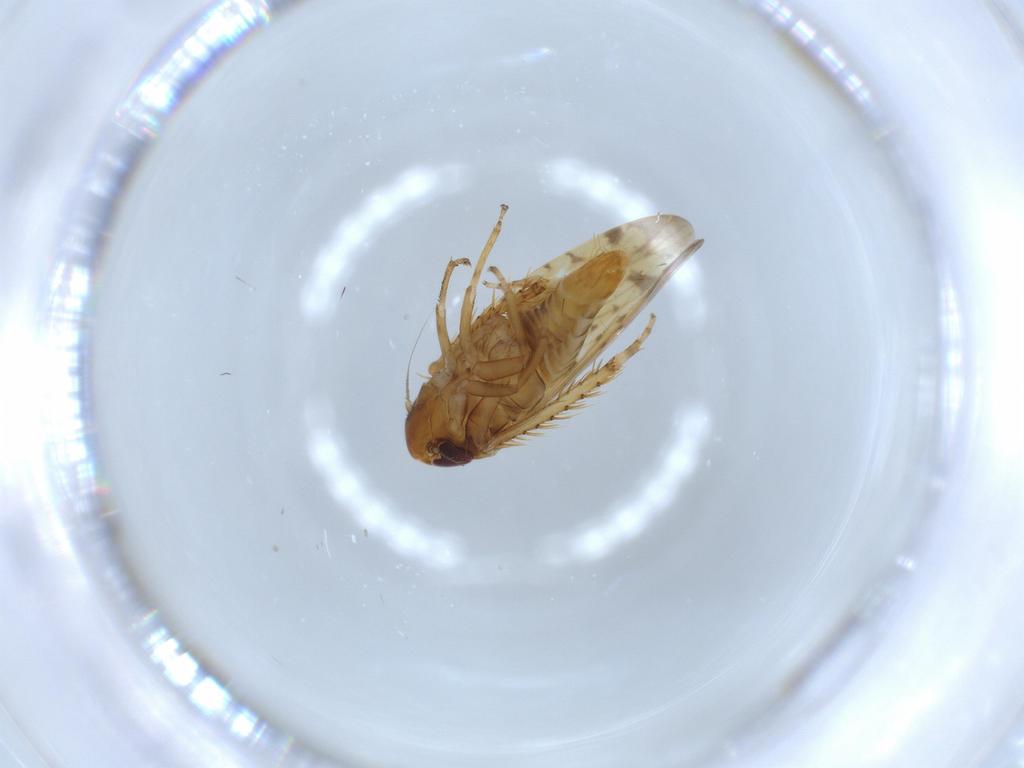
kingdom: Animalia
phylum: Arthropoda
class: Insecta
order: Hemiptera
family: Cicadellidae
